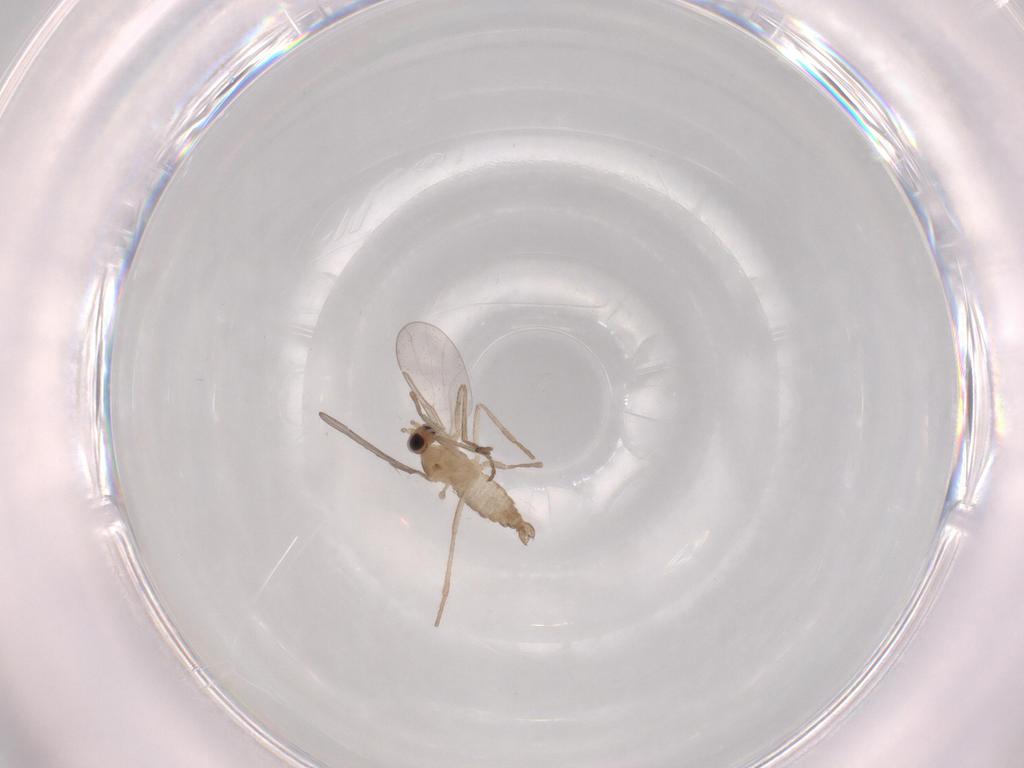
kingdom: Animalia
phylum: Arthropoda
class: Insecta
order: Diptera
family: Cecidomyiidae
